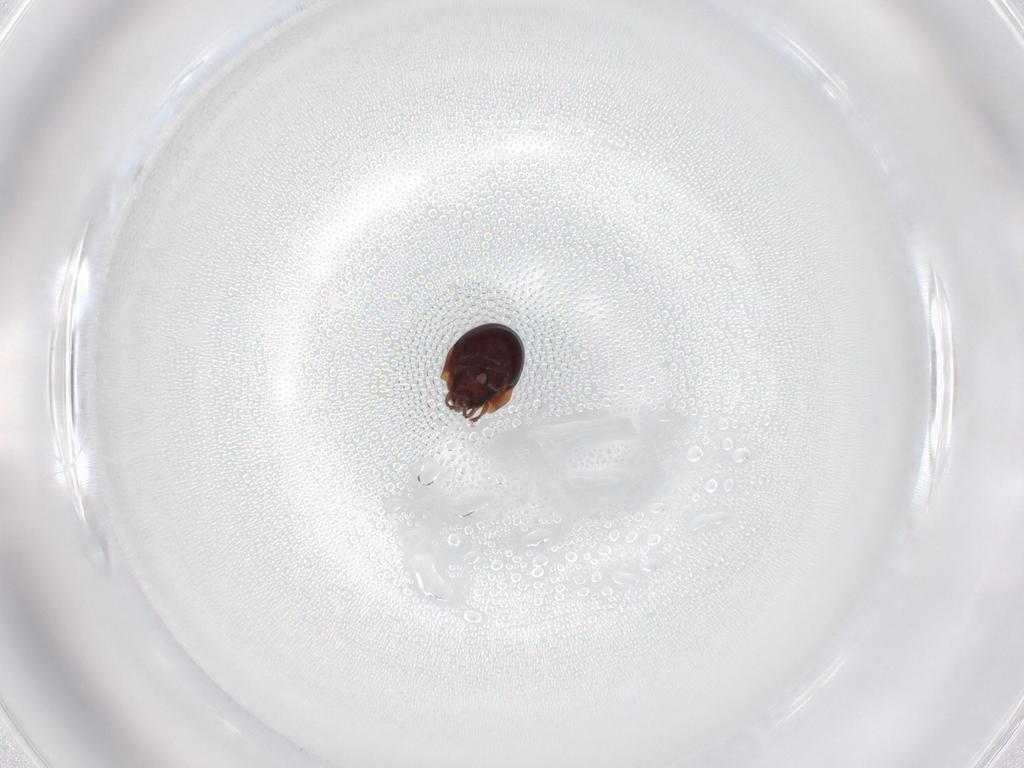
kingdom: Animalia
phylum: Arthropoda
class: Arachnida
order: Sarcoptiformes
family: Humerobatidae
